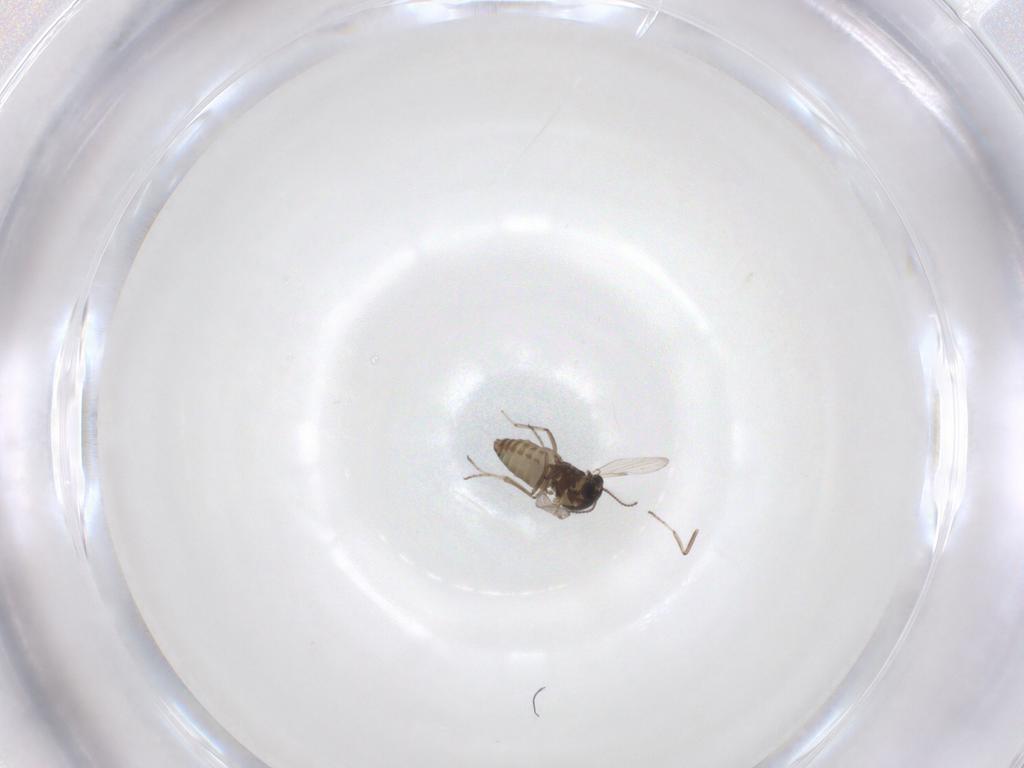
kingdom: Animalia
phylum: Arthropoda
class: Insecta
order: Diptera
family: Ceratopogonidae
